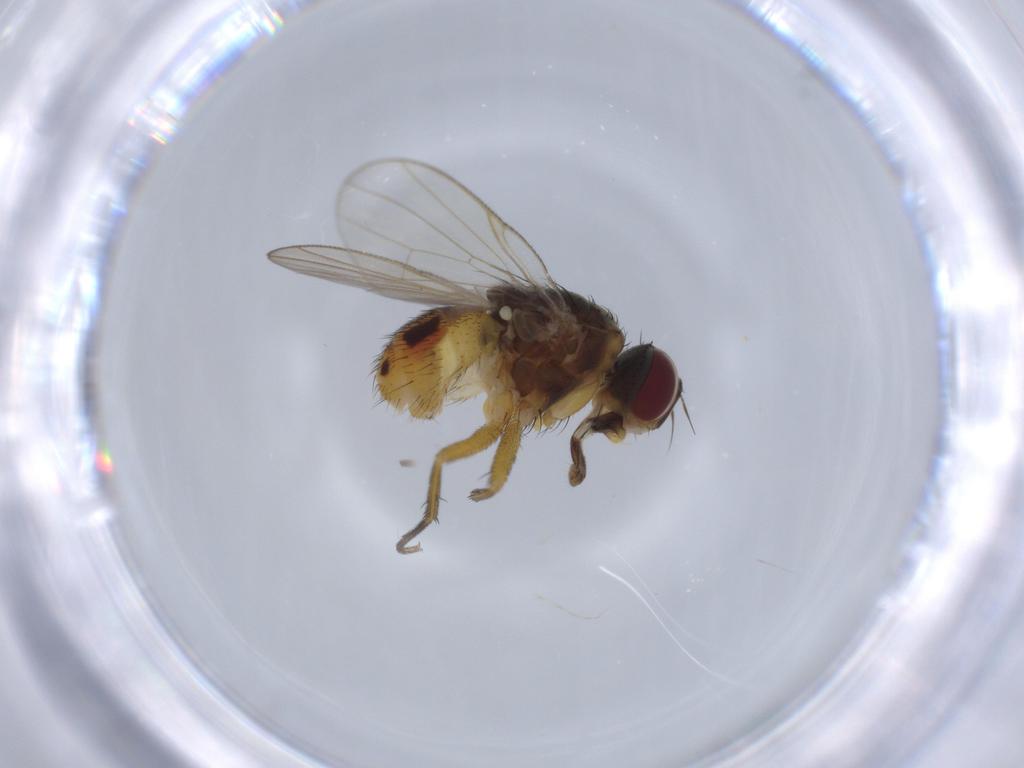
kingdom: Animalia
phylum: Arthropoda
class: Insecta
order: Diptera
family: Muscidae
